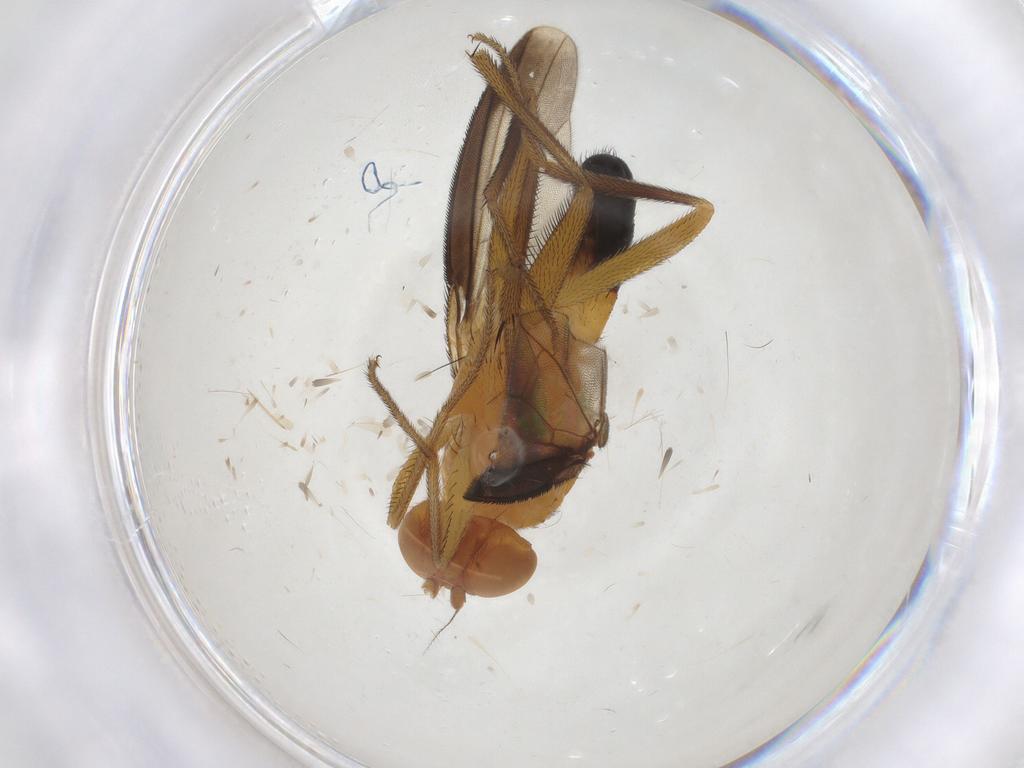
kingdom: Animalia
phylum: Arthropoda
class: Insecta
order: Diptera
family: Clusiidae
